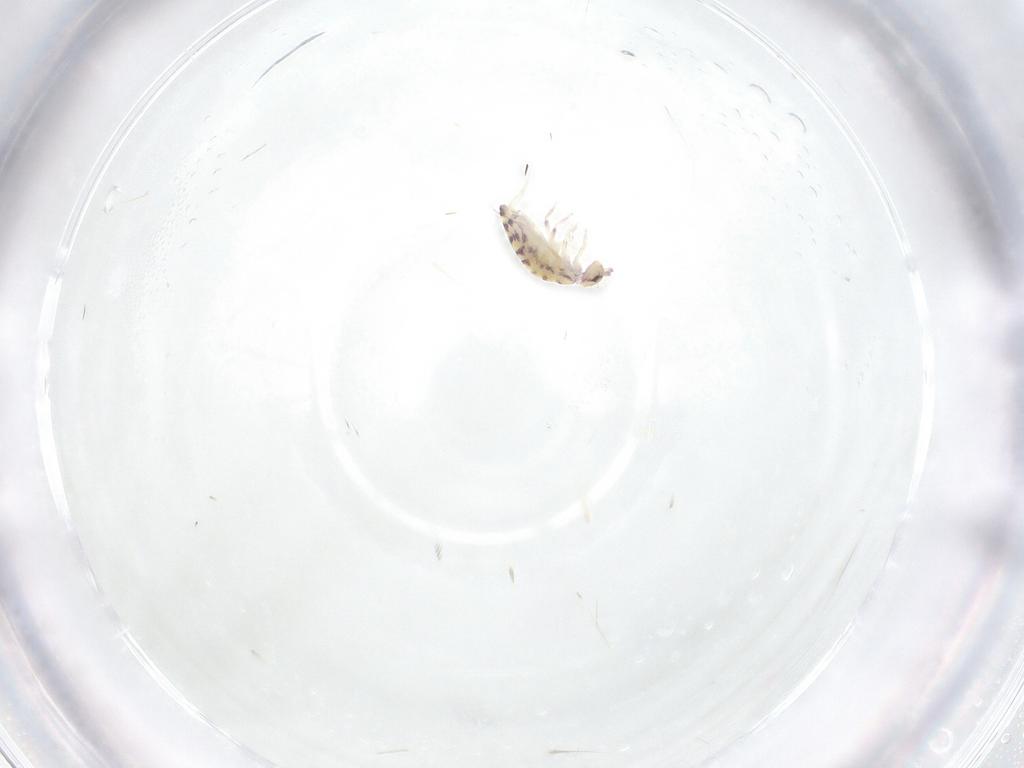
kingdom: Animalia
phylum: Arthropoda
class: Collembola
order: Entomobryomorpha
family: Entomobryidae
